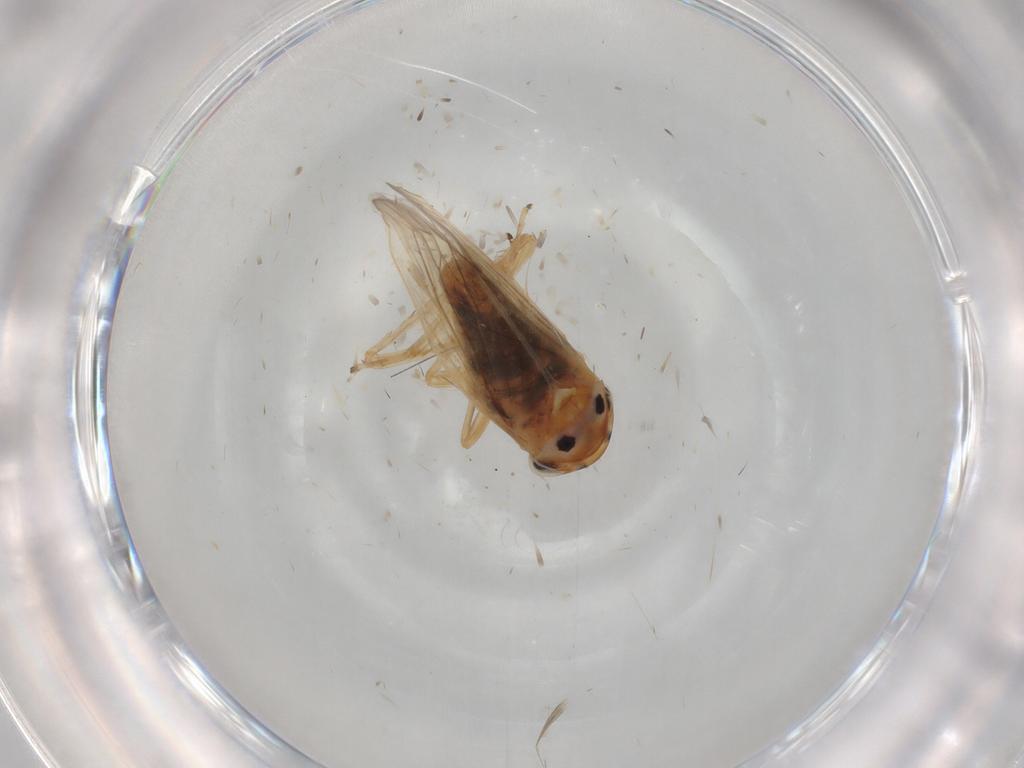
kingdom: Animalia
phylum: Arthropoda
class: Insecta
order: Hemiptera
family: Cicadellidae
